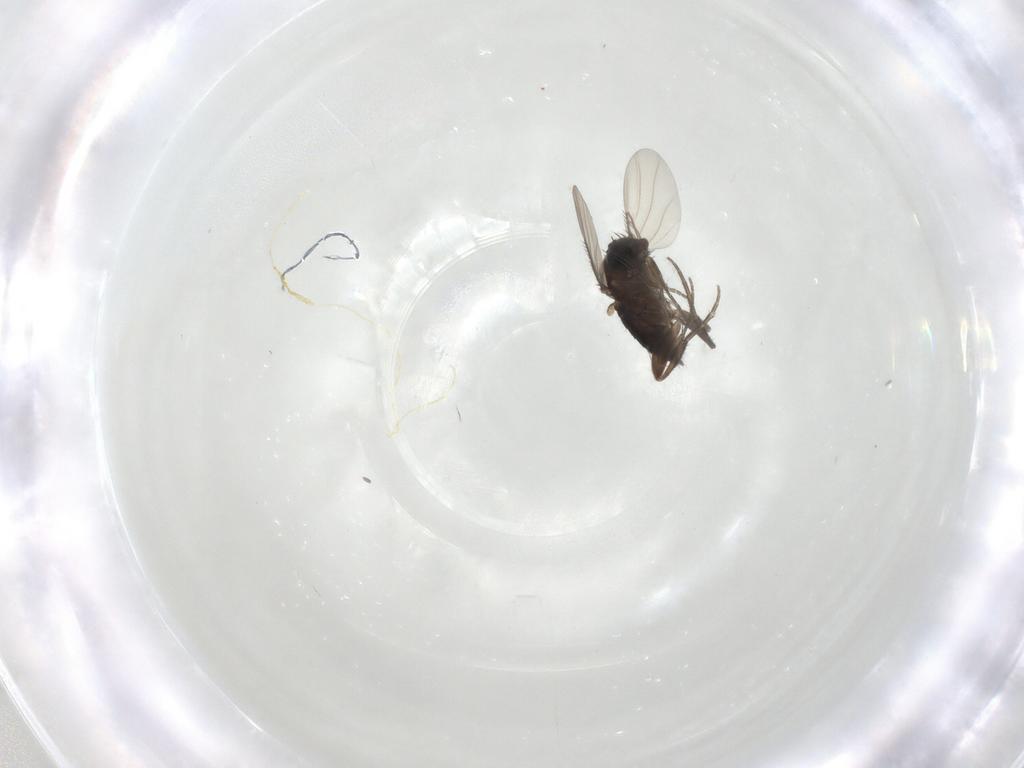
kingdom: Animalia
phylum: Arthropoda
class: Insecta
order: Diptera
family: Phoridae
